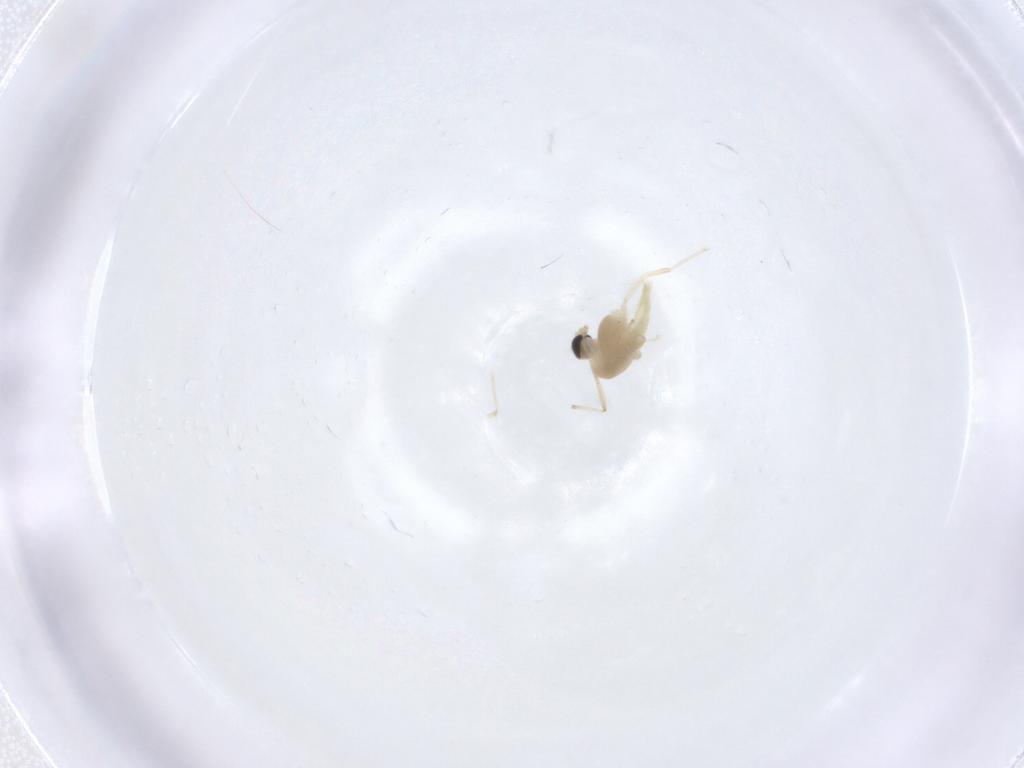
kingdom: Animalia
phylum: Arthropoda
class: Insecta
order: Diptera
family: Chironomidae
